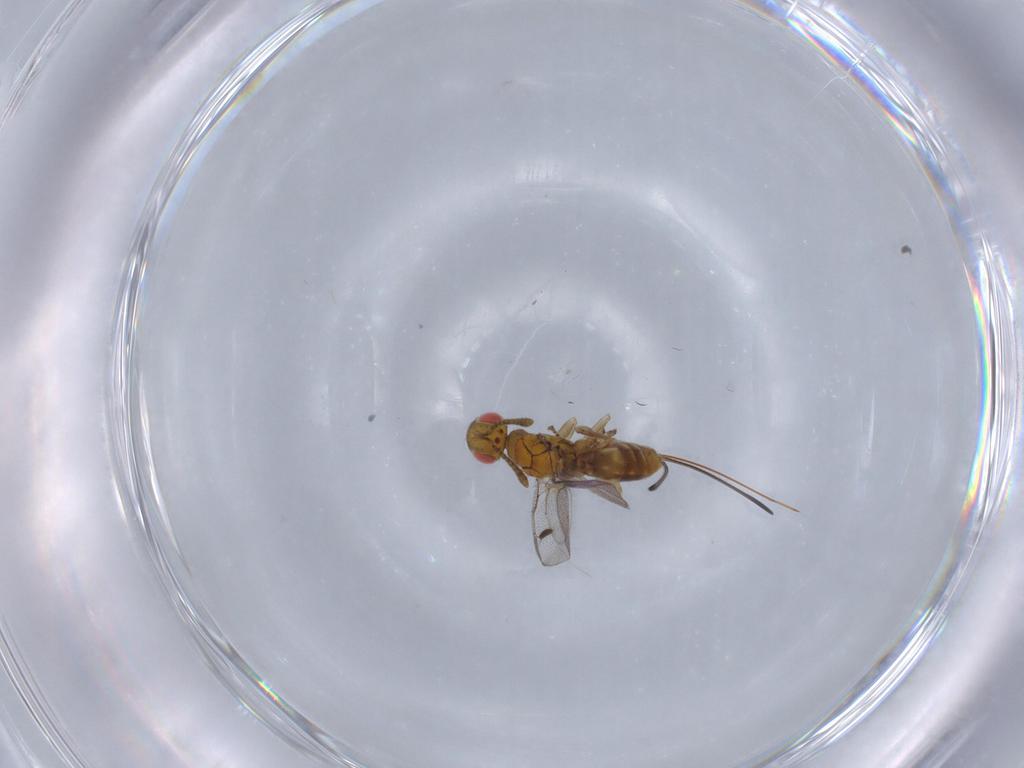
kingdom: Animalia
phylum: Arthropoda
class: Insecta
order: Hymenoptera
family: Megastigmidae
